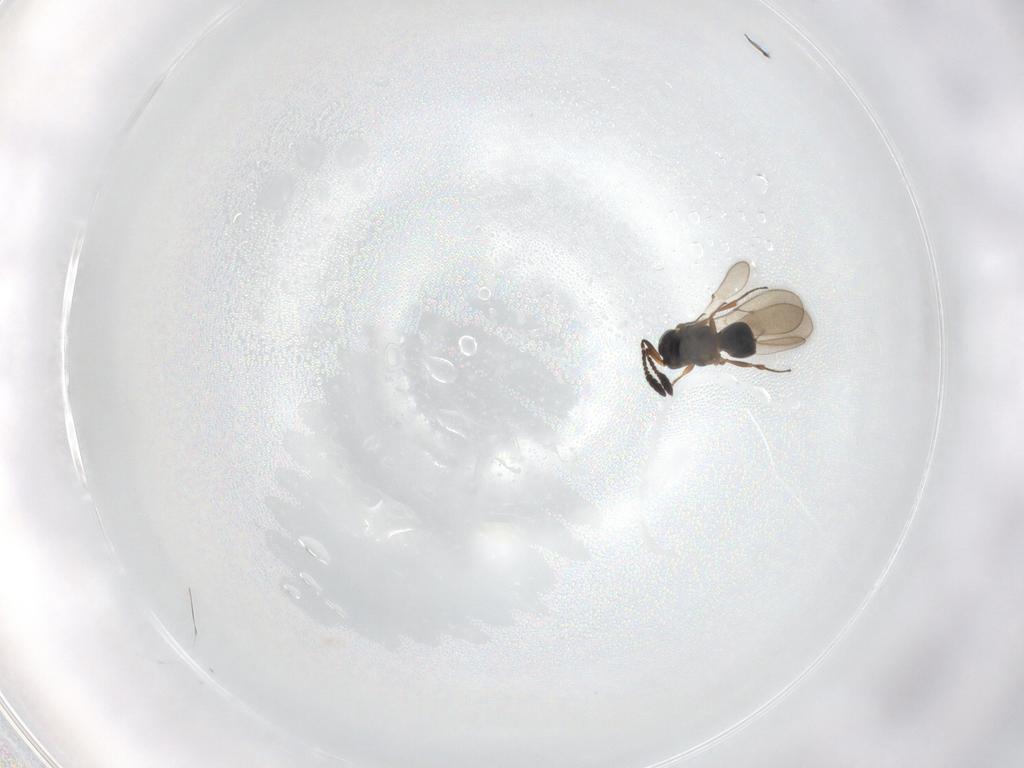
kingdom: Animalia
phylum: Arthropoda
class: Insecta
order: Hymenoptera
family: Scelionidae
